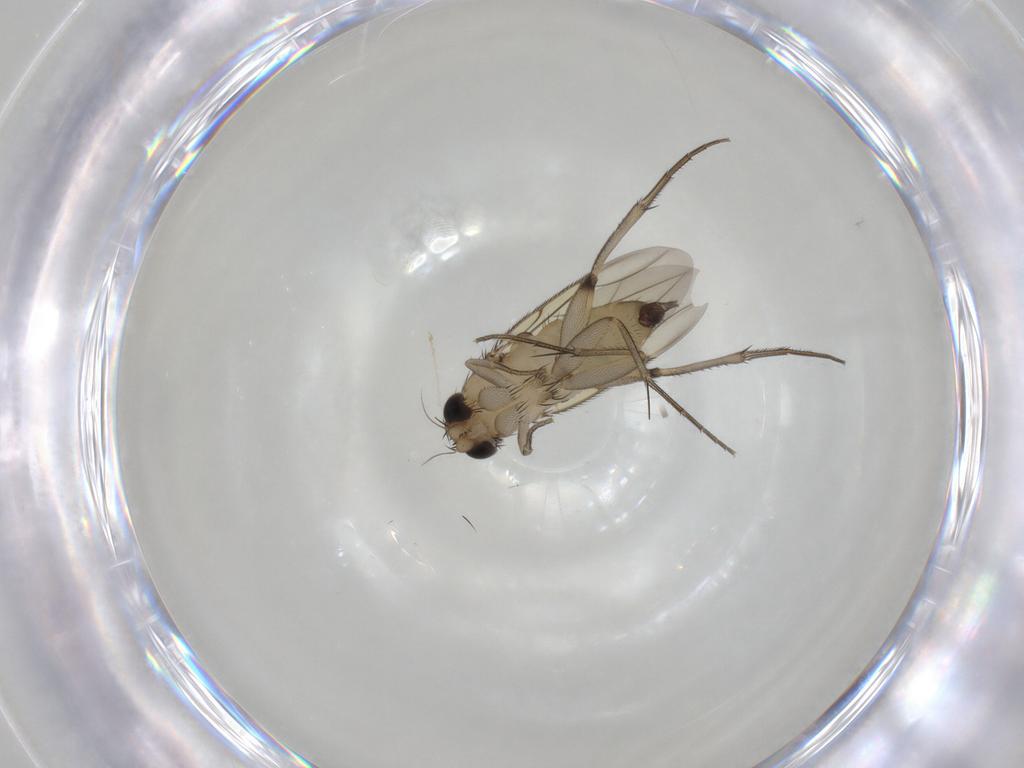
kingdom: Animalia
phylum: Arthropoda
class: Insecta
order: Diptera
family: Phoridae
